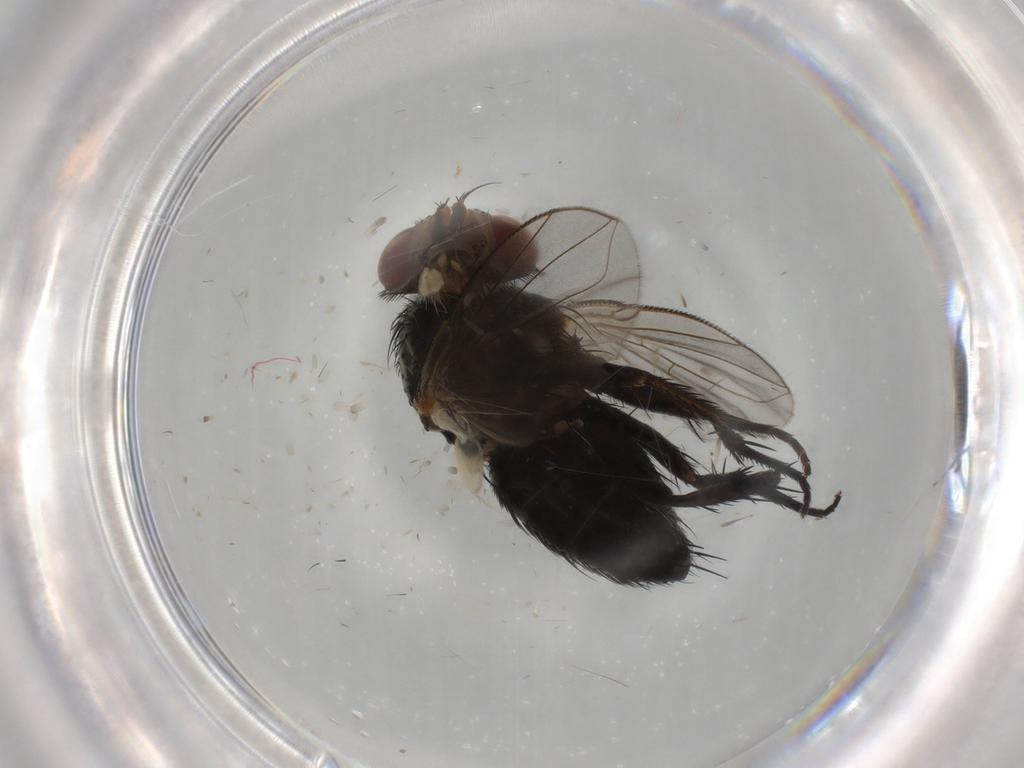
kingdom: Animalia
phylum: Arthropoda
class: Insecta
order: Diptera
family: Tachinidae
